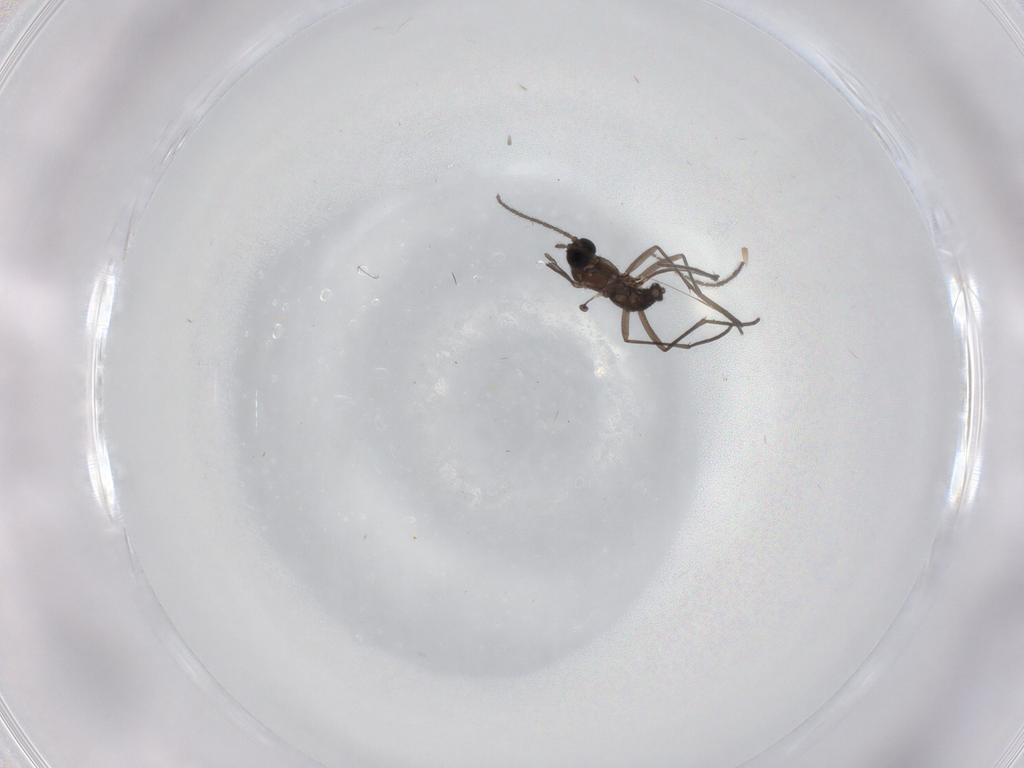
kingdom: Animalia
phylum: Arthropoda
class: Insecta
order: Diptera
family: Sciaridae
